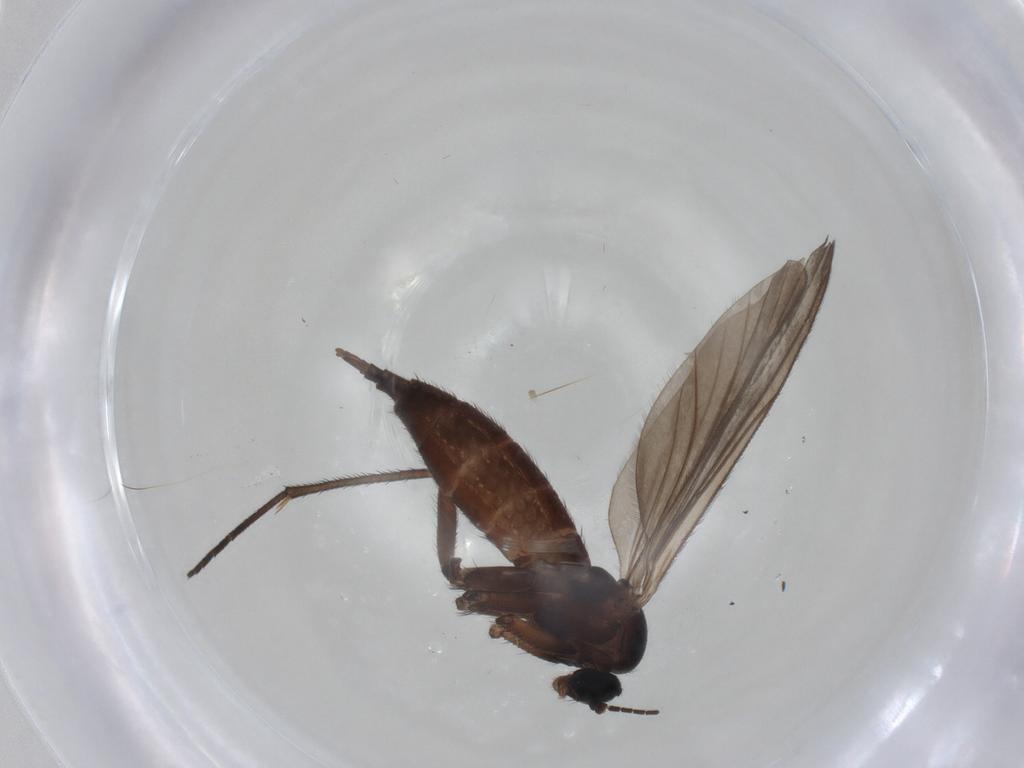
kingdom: Animalia
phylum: Arthropoda
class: Insecta
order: Diptera
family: Sciaridae
